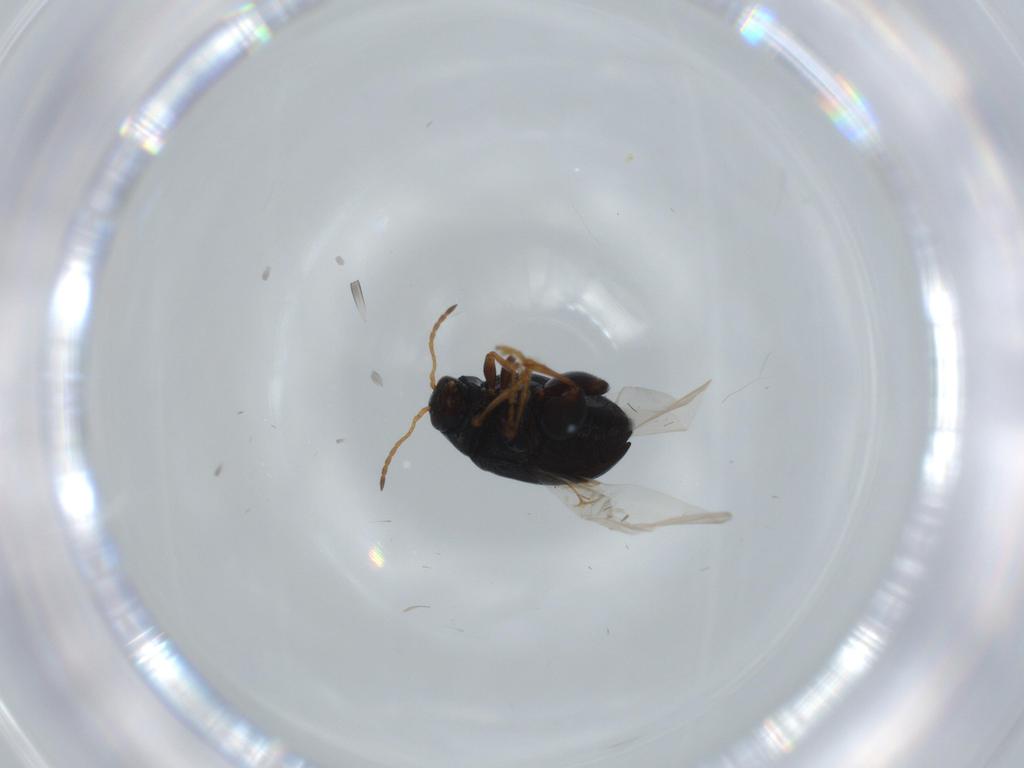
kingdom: Animalia
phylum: Arthropoda
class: Insecta
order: Coleoptera
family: Chrysomelidae
